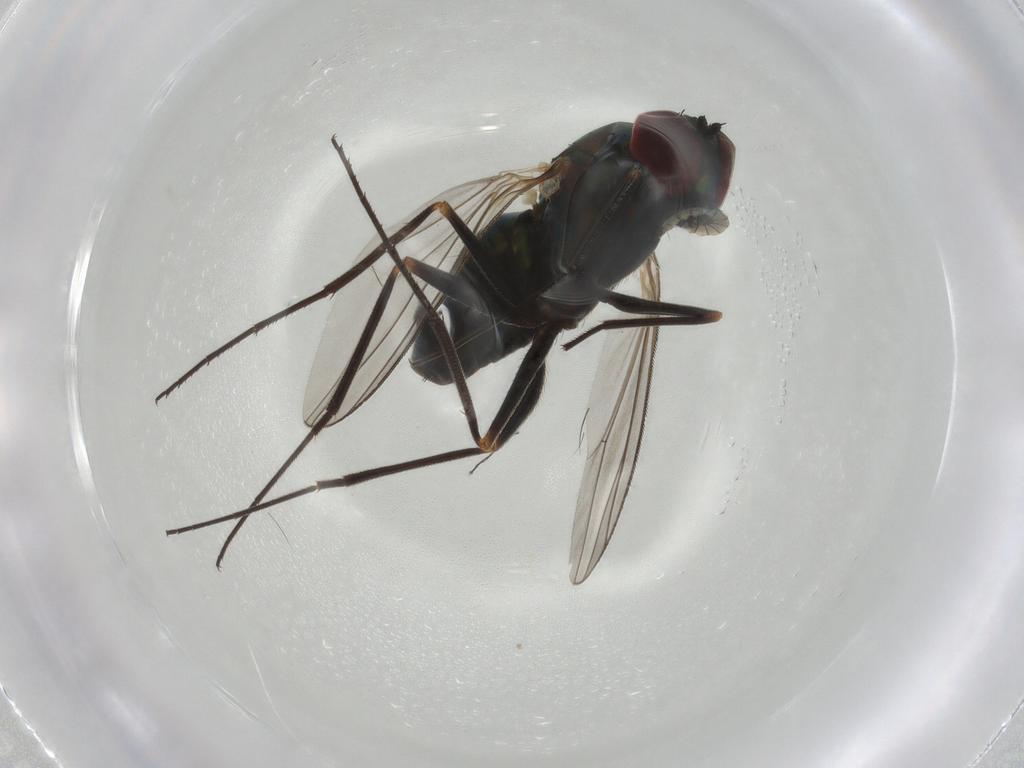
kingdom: Animalia
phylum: Arthropoda
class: Insecta
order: Diptera
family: Dolichopodidae
